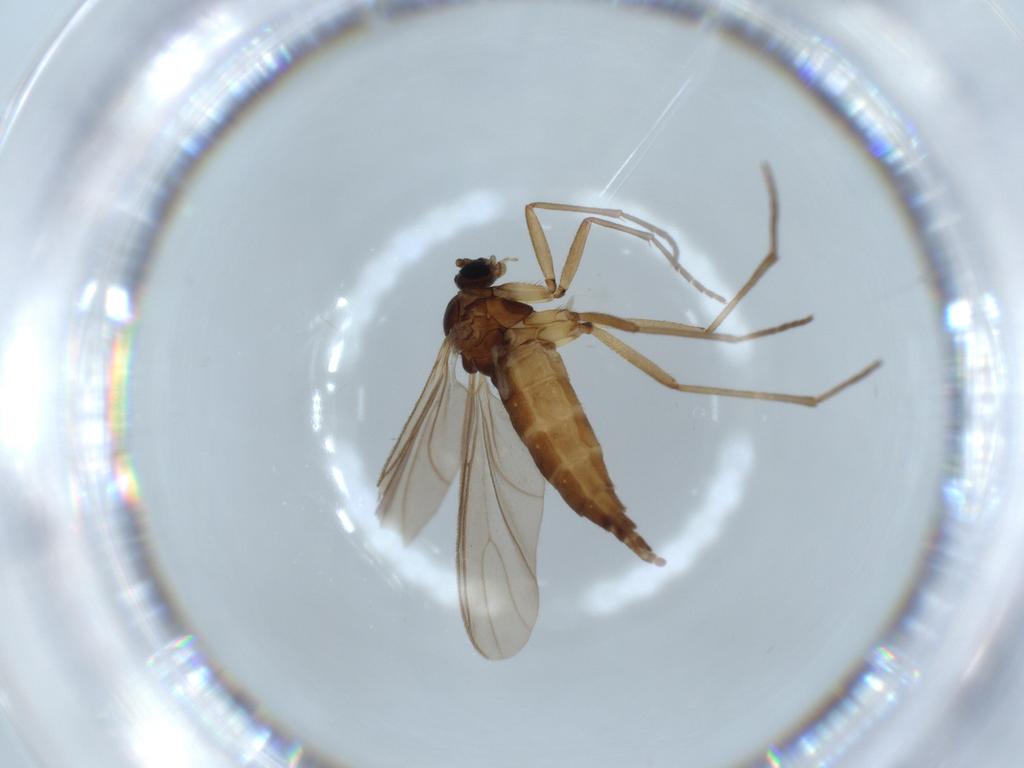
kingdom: Animalia
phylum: Arthropoda
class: Insecta
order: Diptera
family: Sciaridae
